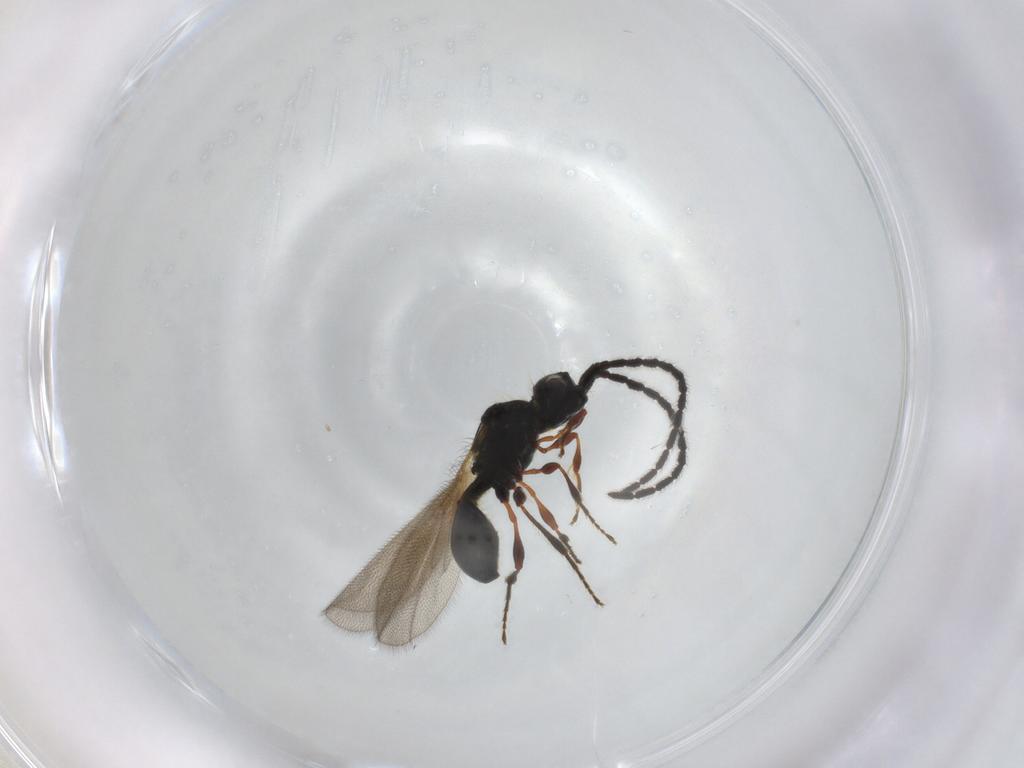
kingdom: Animalia
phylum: Arthropoda
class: Insecta
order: Hymenoptera
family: Diapriidae
